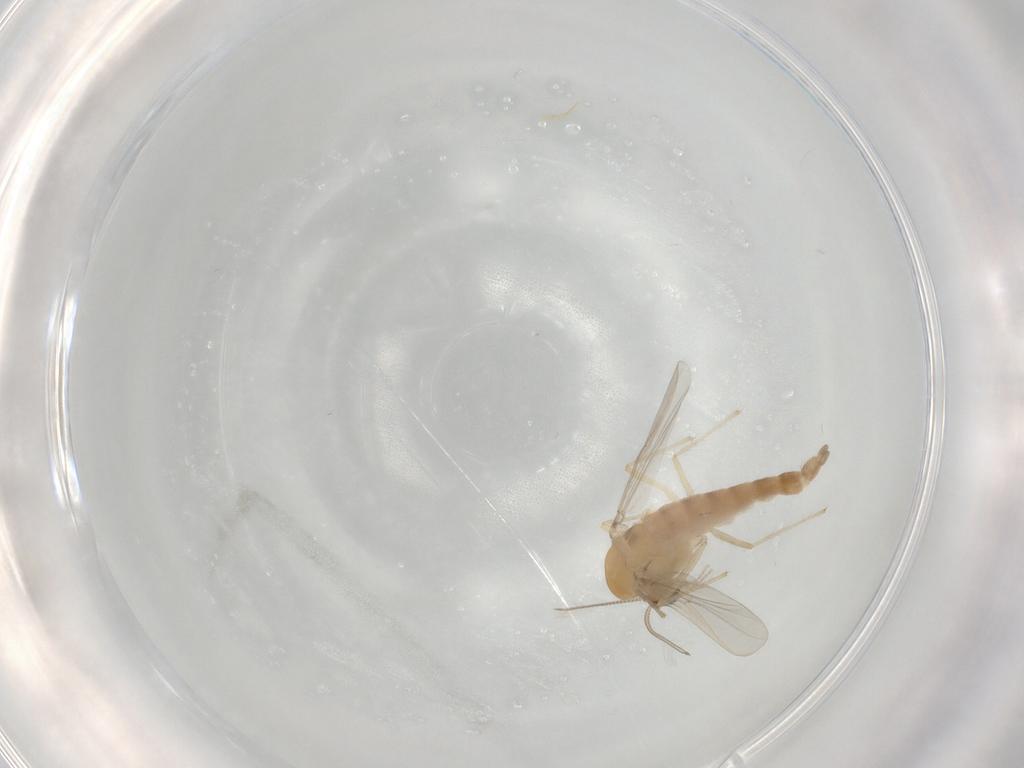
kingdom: Animalia
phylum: Arthropoda
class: Insecta
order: Diptera
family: Chironomidae
